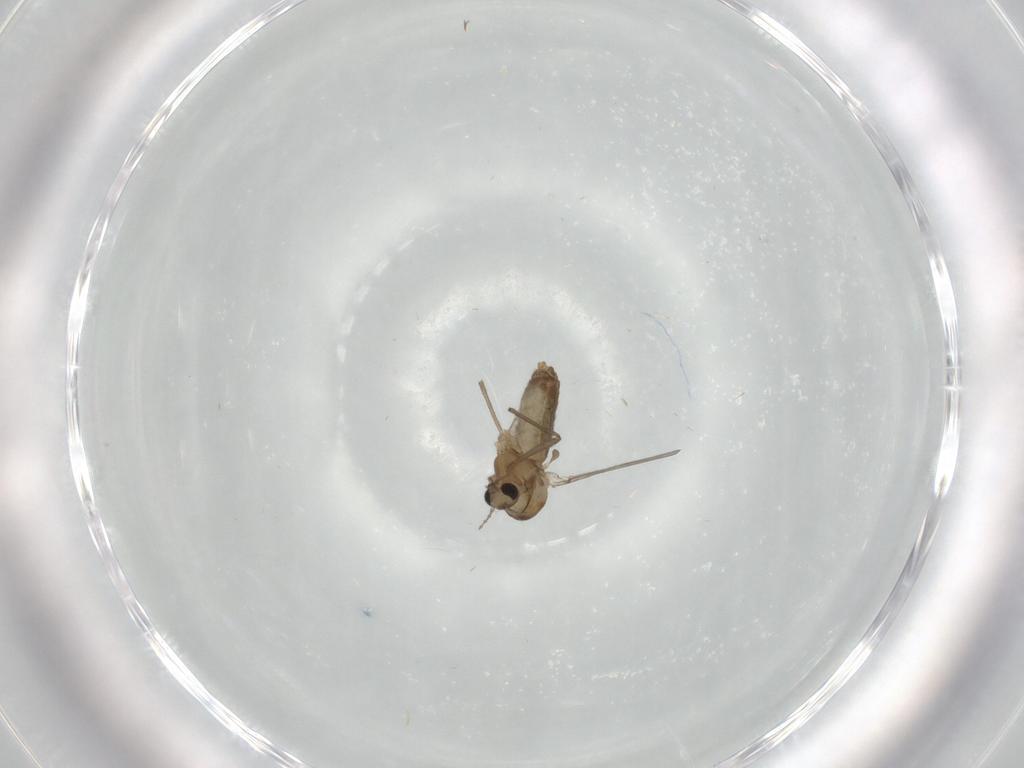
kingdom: Animalia
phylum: Arthropoda
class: Insecta
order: Diptera
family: Chironomidae
